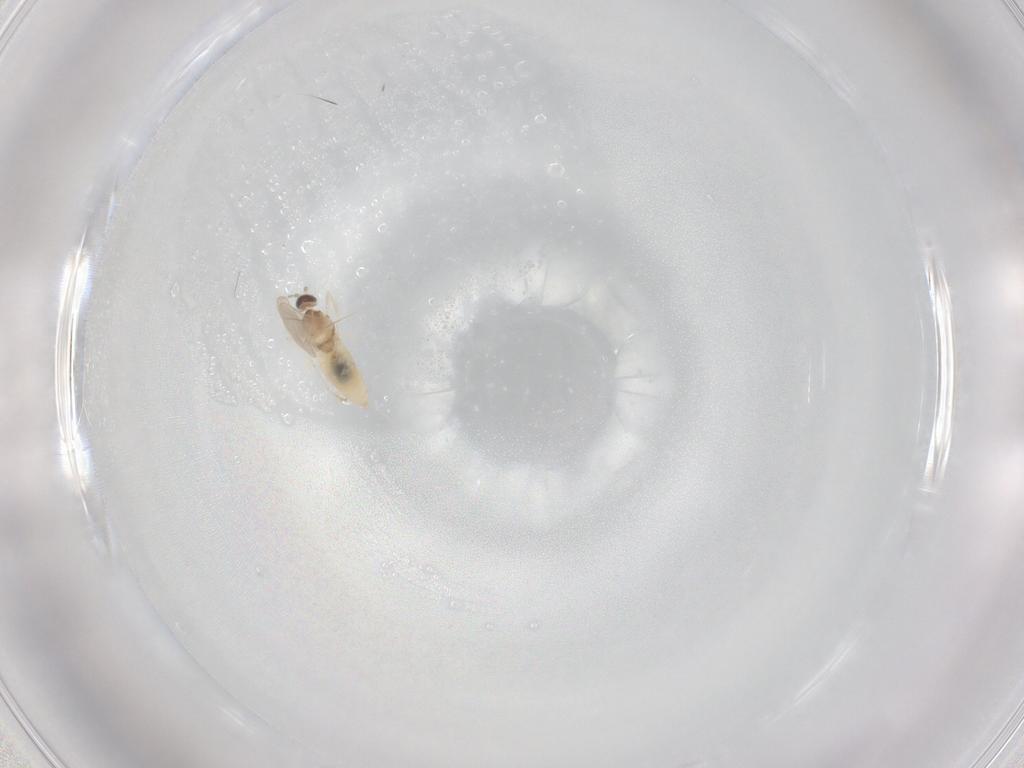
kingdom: Animalia
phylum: Arthropoda
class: Insecta
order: Diptera
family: Cecidomyiidae
